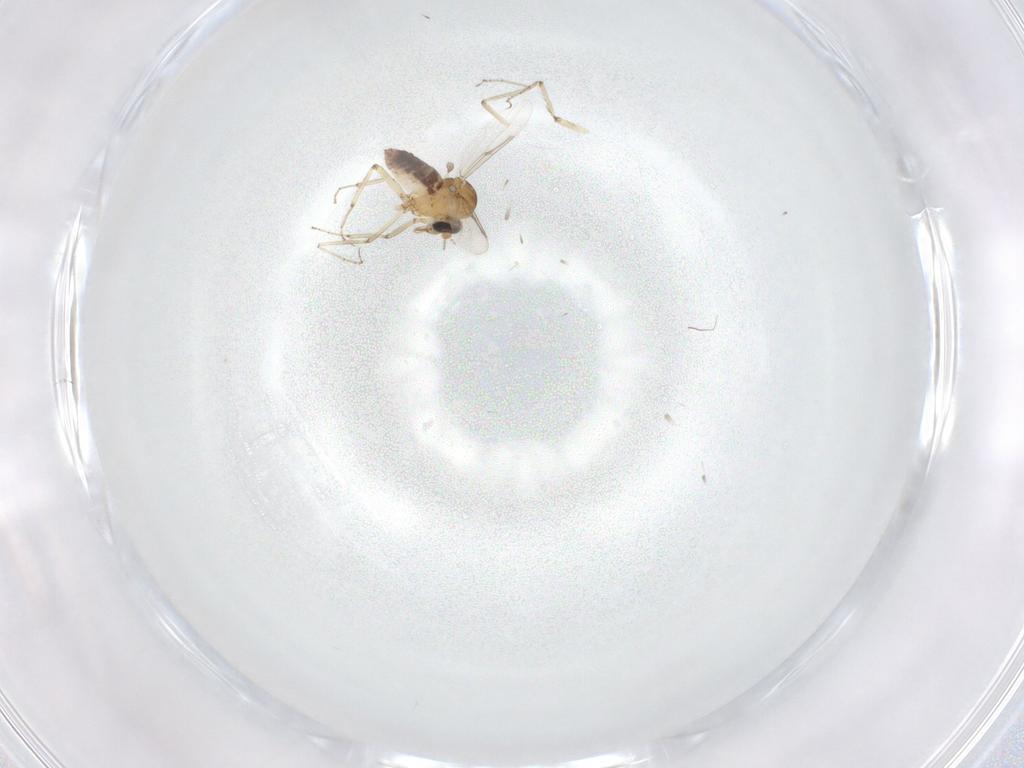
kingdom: Animalia
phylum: Arthropoda
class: Insecta
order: Diptera
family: Ceratopogonidae
